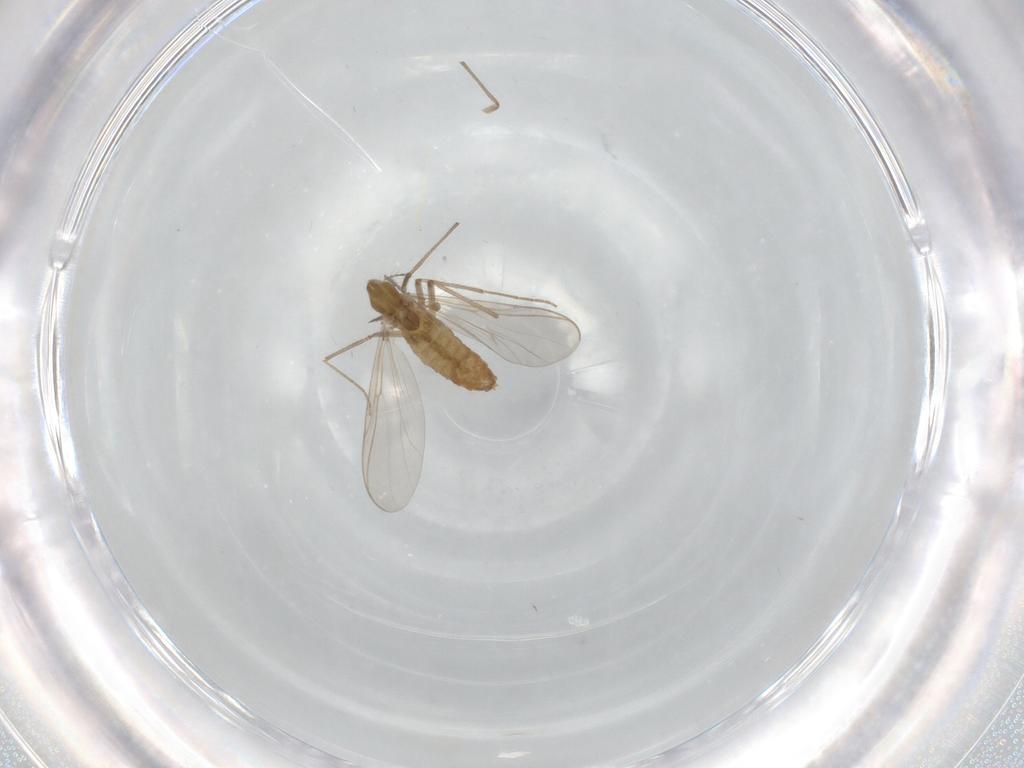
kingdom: Animalia
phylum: Arthropoda
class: Insecta
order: Diptera
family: Chironomidae
